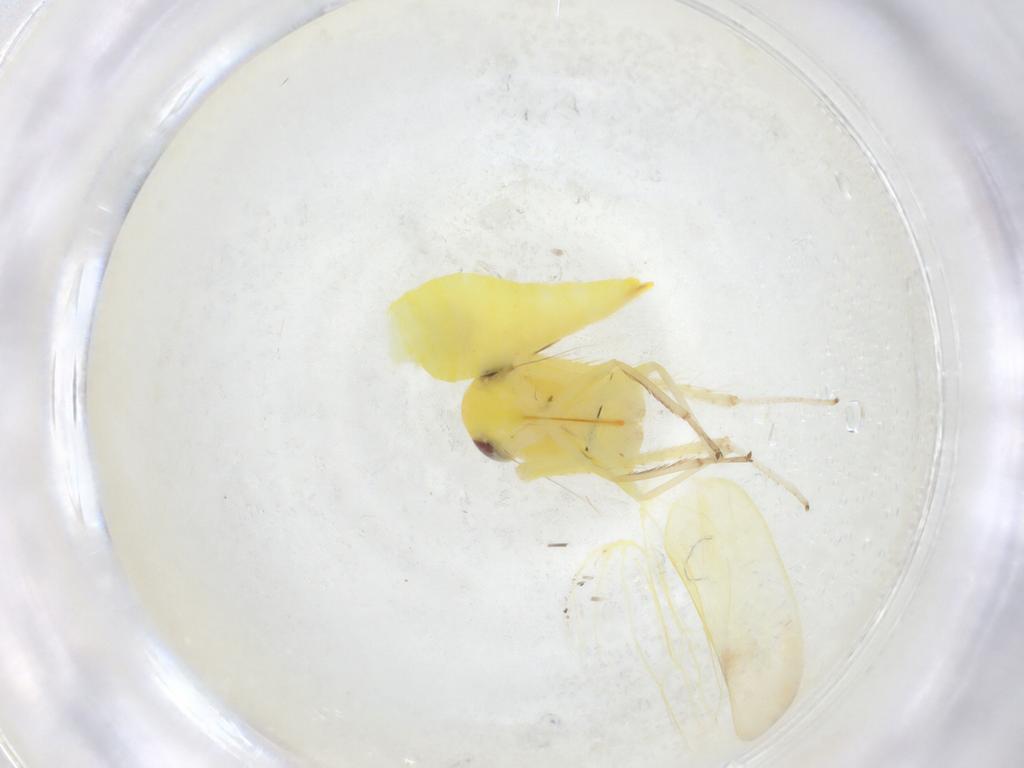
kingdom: Animalia
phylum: Arthropoda
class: Insecta
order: Hemiptera
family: Cicadellidae
